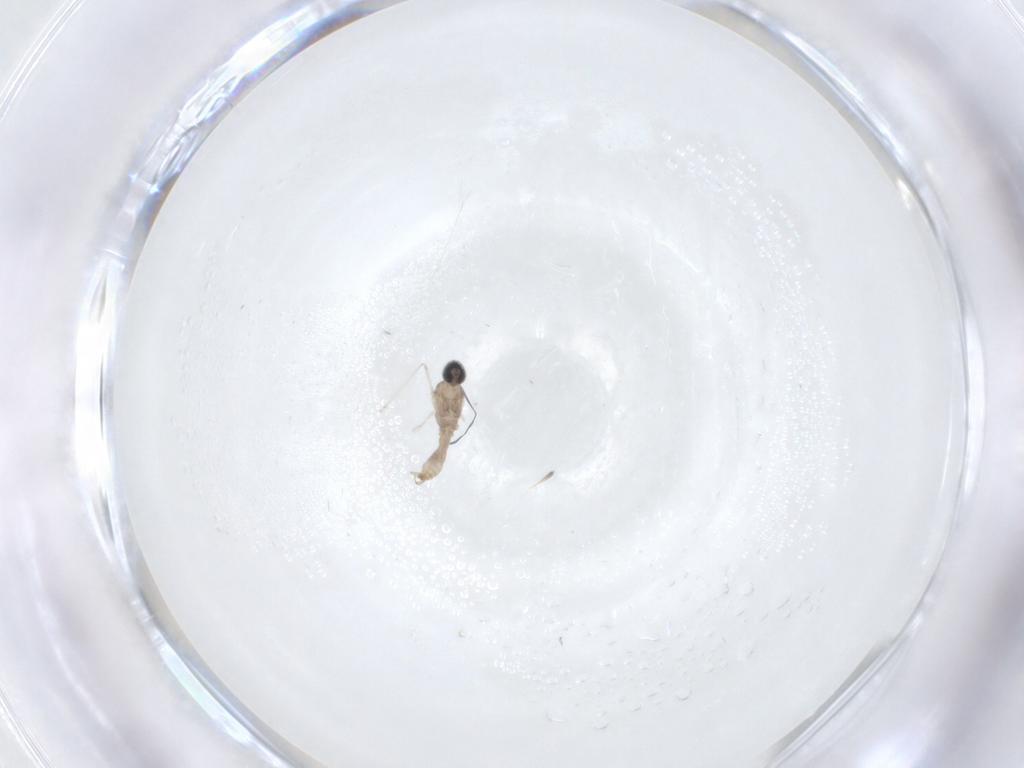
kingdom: Animalia
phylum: Arthropoda
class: Insecta
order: Diptera
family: Cecidomyiidae
